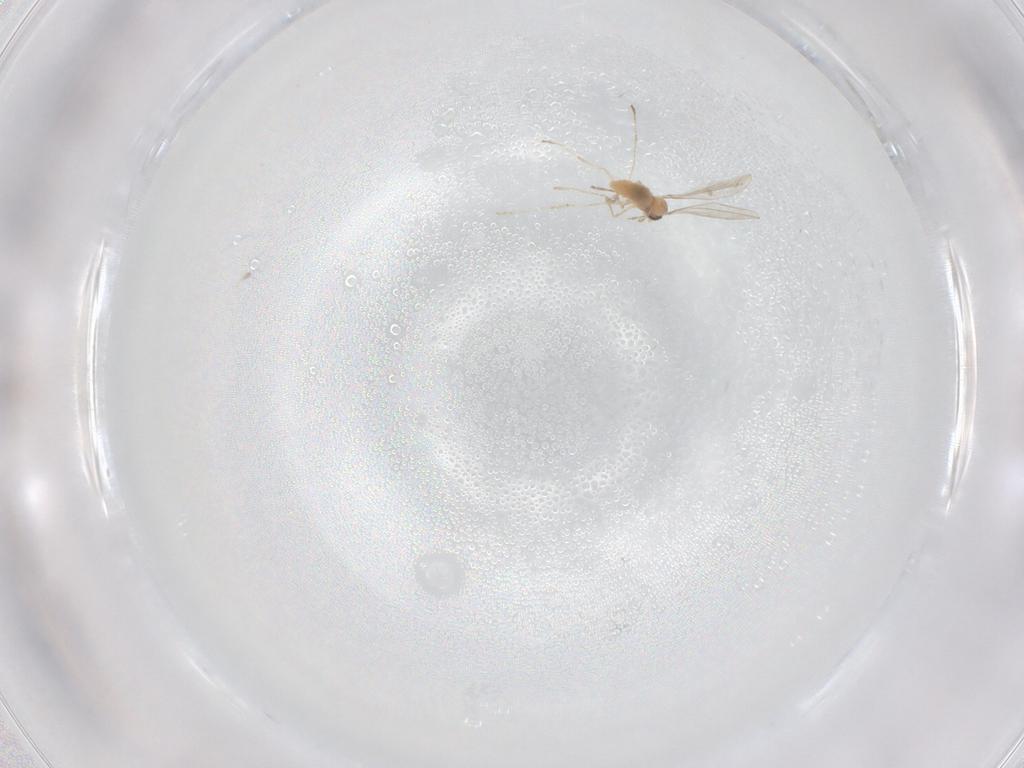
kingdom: Animalia
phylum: Arthropoda
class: Insecta
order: Diptera
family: Cecidomyiidae
